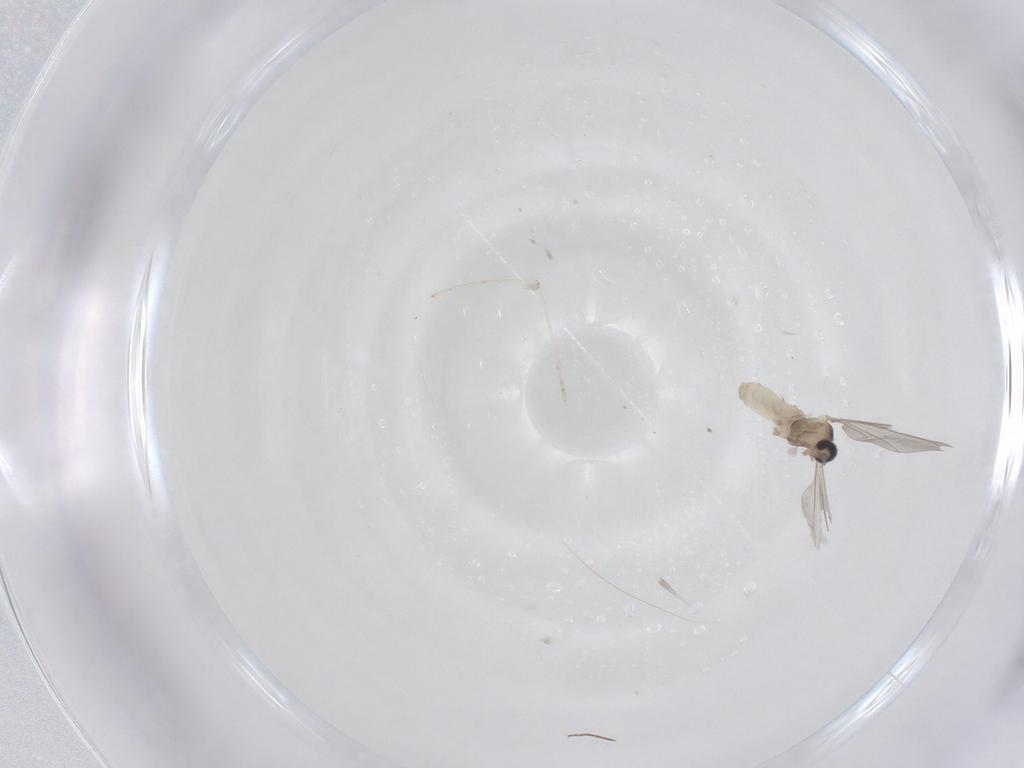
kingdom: Animalia
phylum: Arthropoda
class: Insecta
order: Diptera
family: Cecidomyiidae
